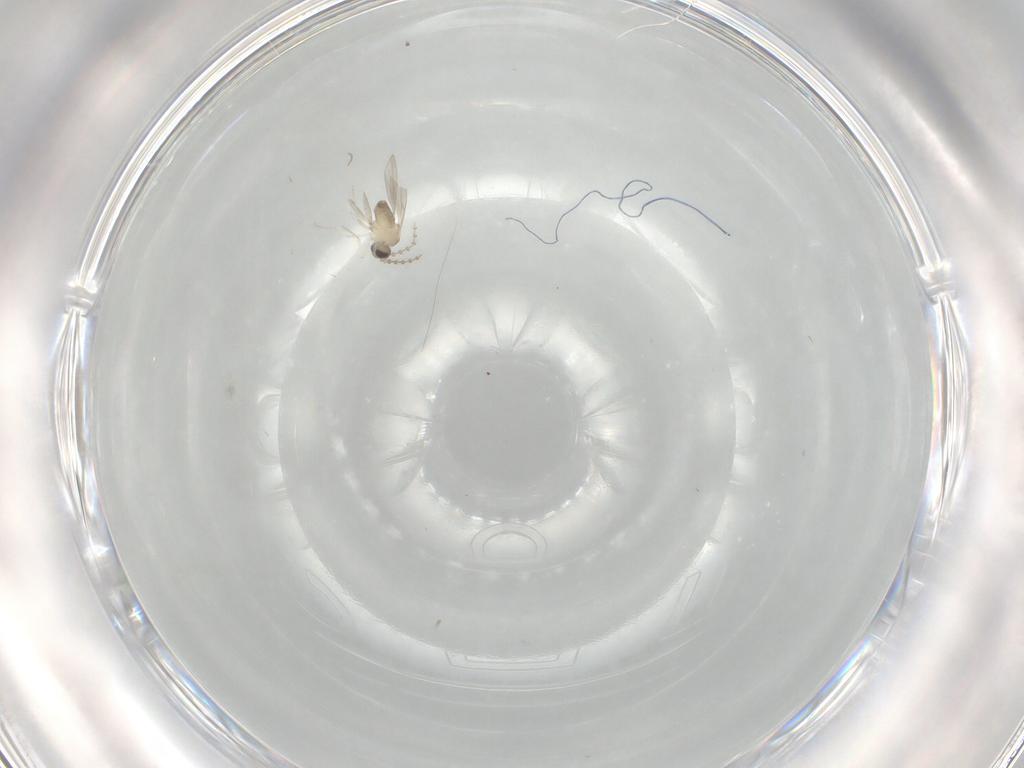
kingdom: Animalia
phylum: Arthropoda
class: Insecta
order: Diptera
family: Cecidomyiidae
